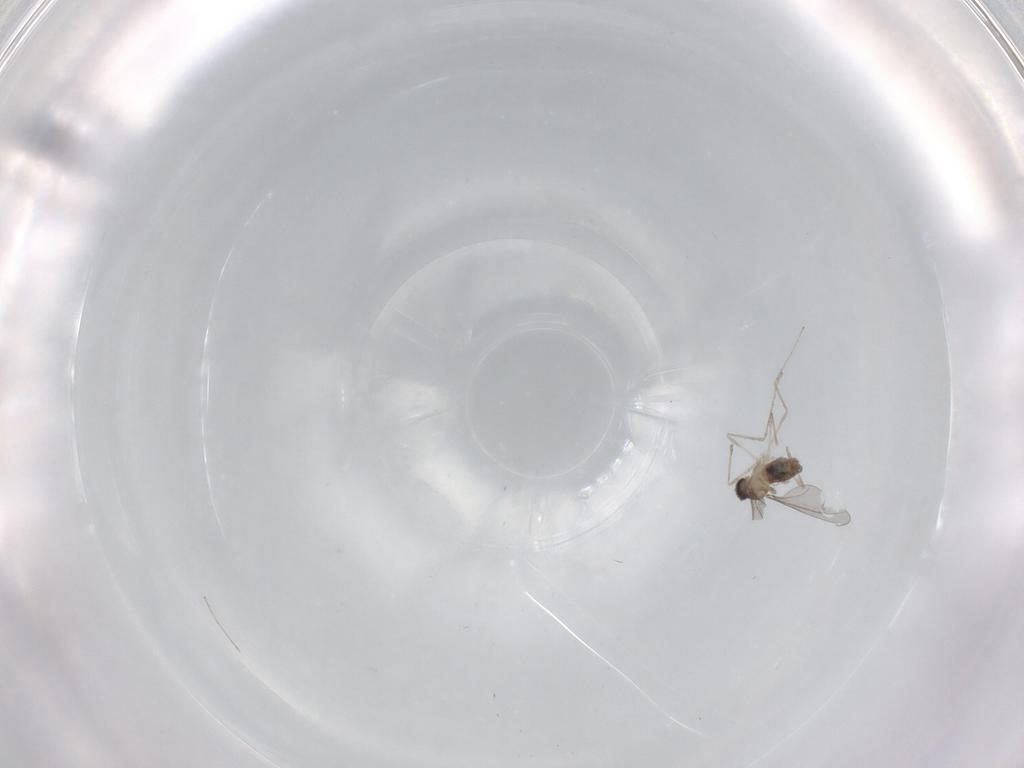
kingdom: Animalia
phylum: Arthropoda
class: Insecta
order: Diptera
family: Cecidomyiidae
